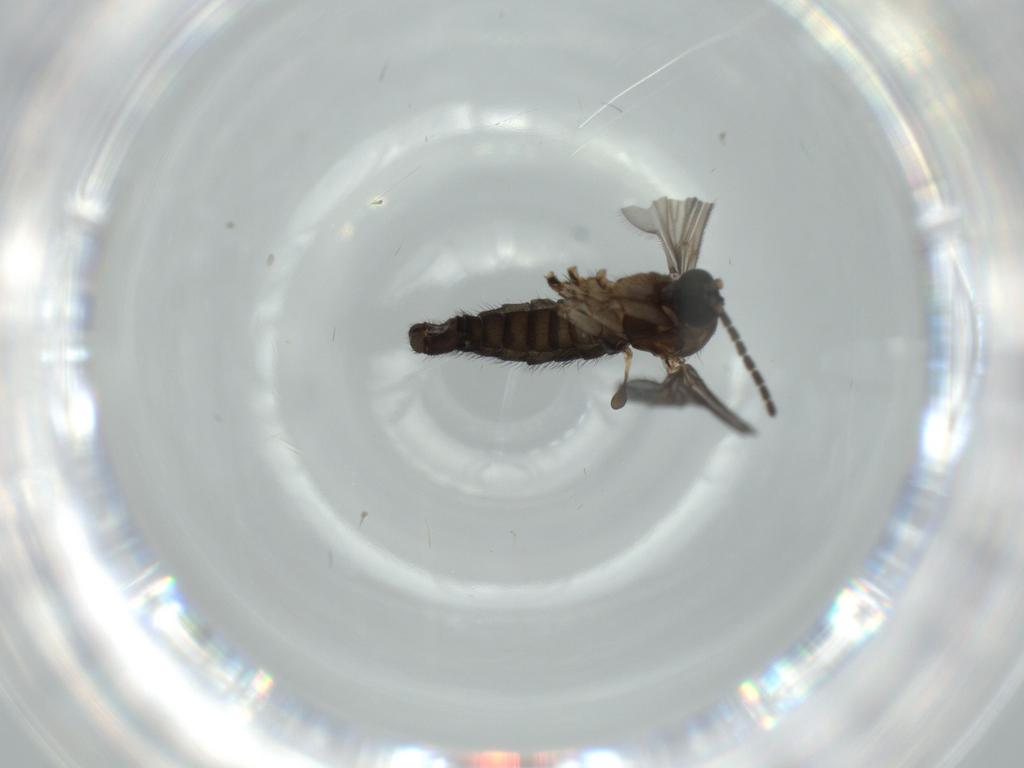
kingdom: Animalia
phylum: Arthropoda
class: Insecta
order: Diptera
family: Sciaridae
